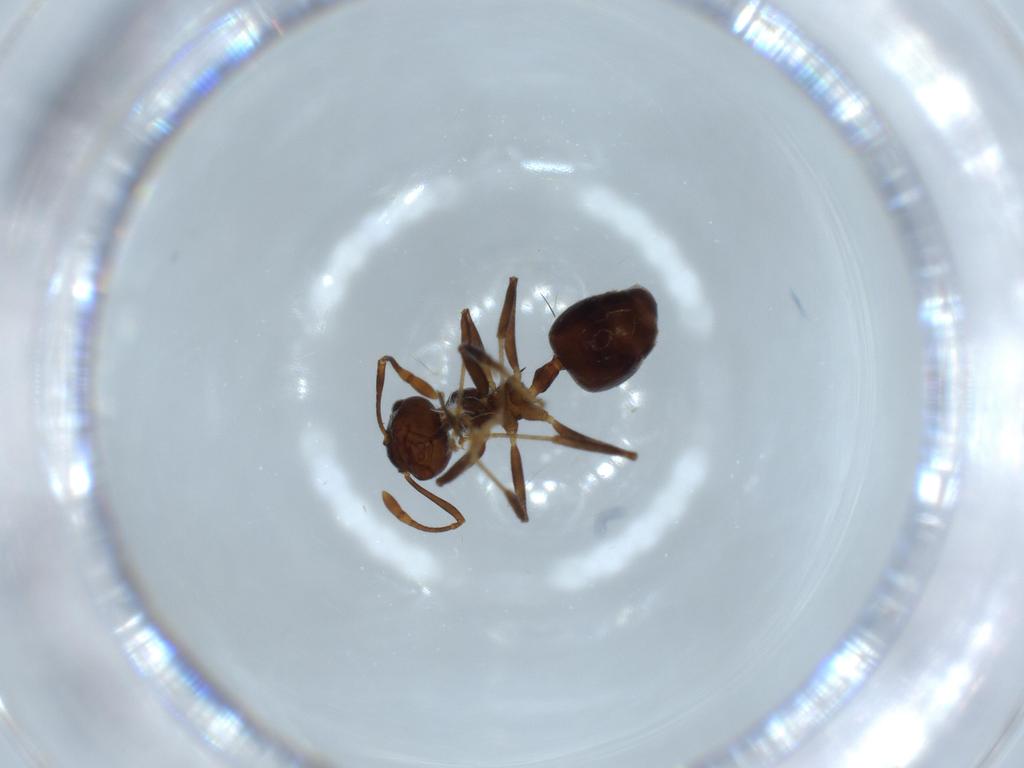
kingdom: Animalia
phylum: Arthropoda
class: Insecta
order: Hymenoptera
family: Formicidae
